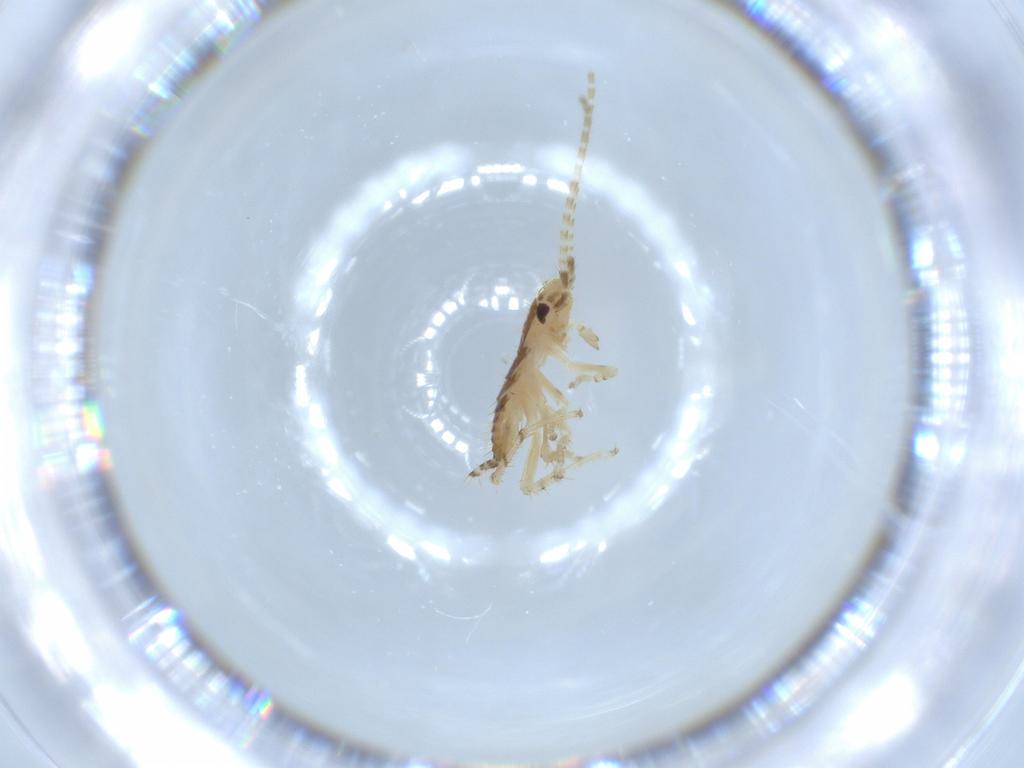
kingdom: Animalia
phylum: Arthropoda
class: Insecta
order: Blattodea
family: Ectobiidae
